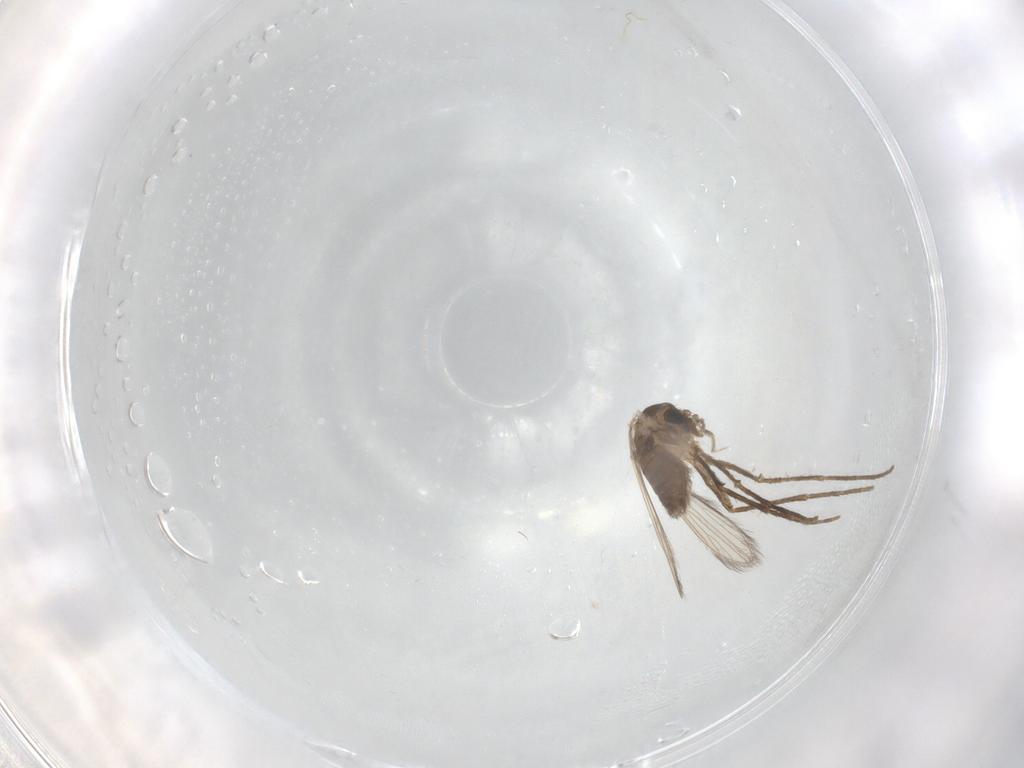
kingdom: Animalia
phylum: Arthropoda
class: Insecta
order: Diptera
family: Psychodidae
